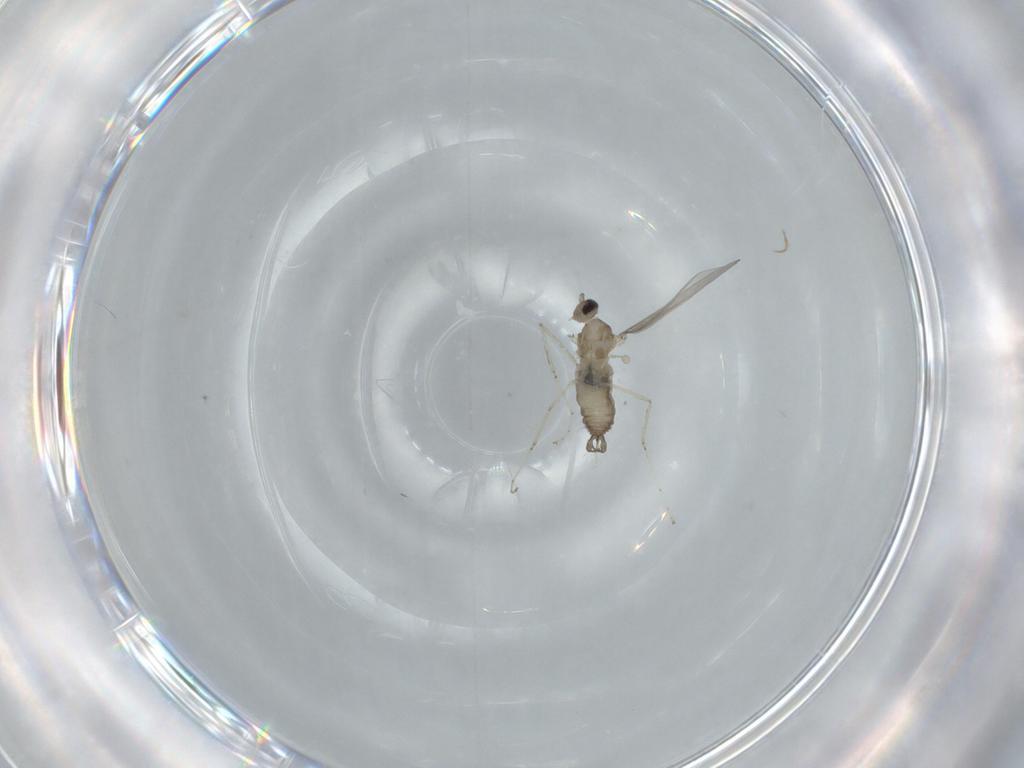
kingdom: Animalia
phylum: Arthropoda
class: Insecta
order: Diptera
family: Cecidomyiidae
